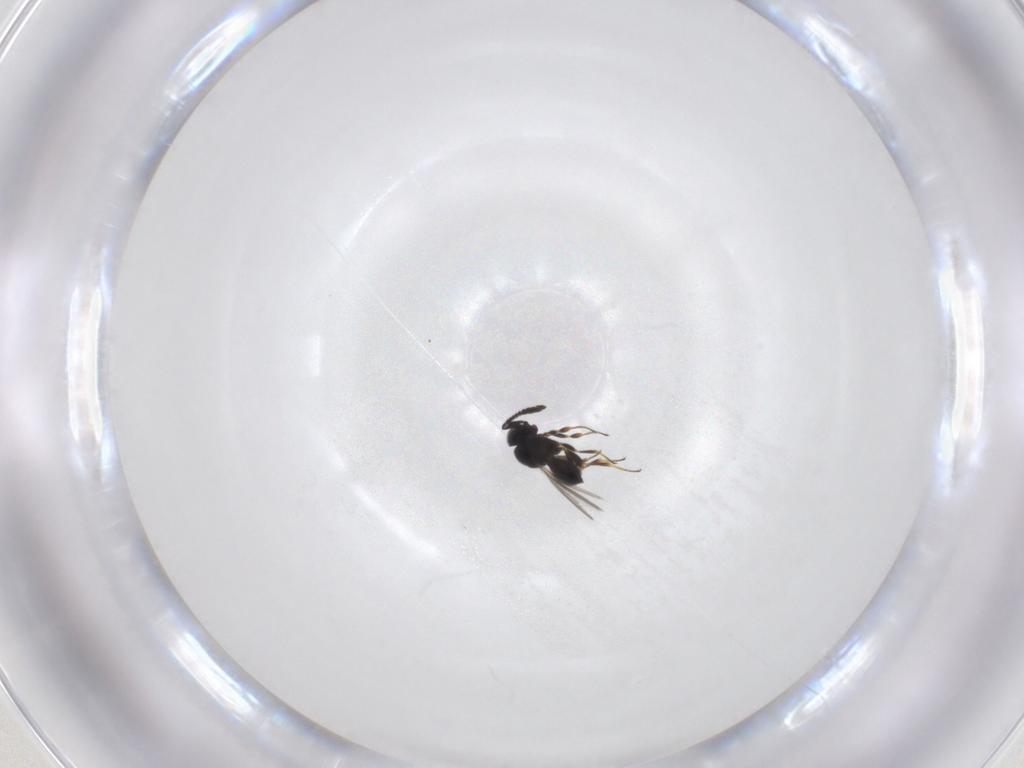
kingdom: Animalia
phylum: Arthropoda
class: Insecta
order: Hymenoptera
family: Scelionidae
